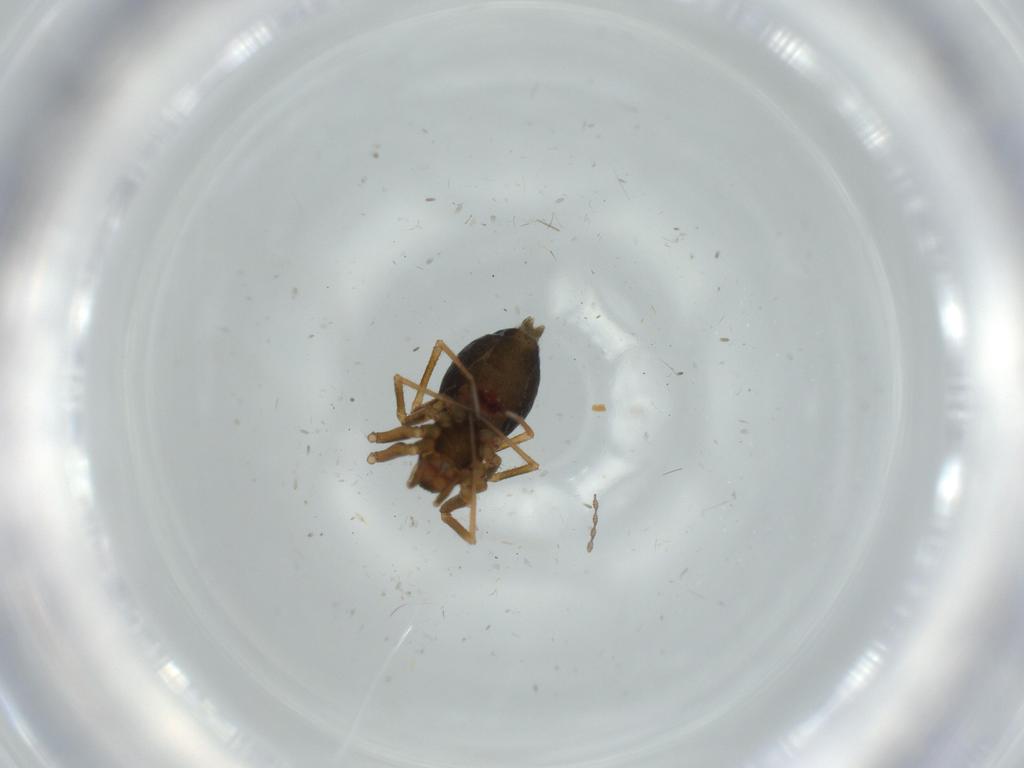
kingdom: Animalia
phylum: Arthropoda
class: Arachnida
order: Araneae
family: Linyphiidae
